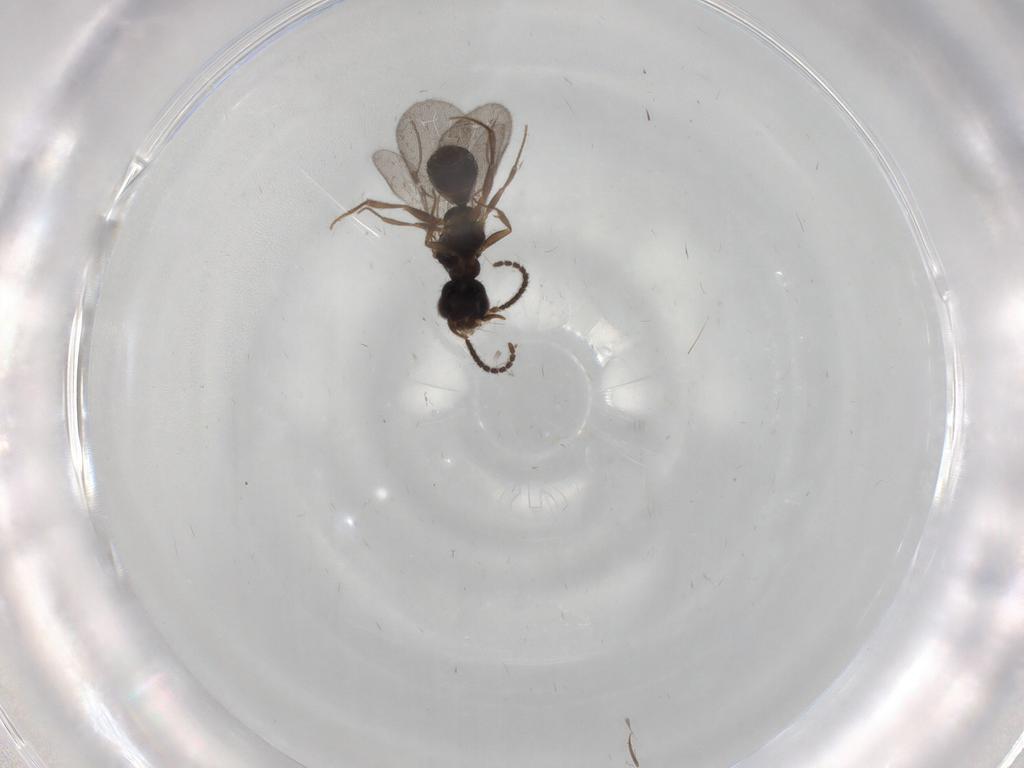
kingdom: Animalia
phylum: Arthropoda
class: Insecta
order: Hymenoptera
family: Bethylidae
